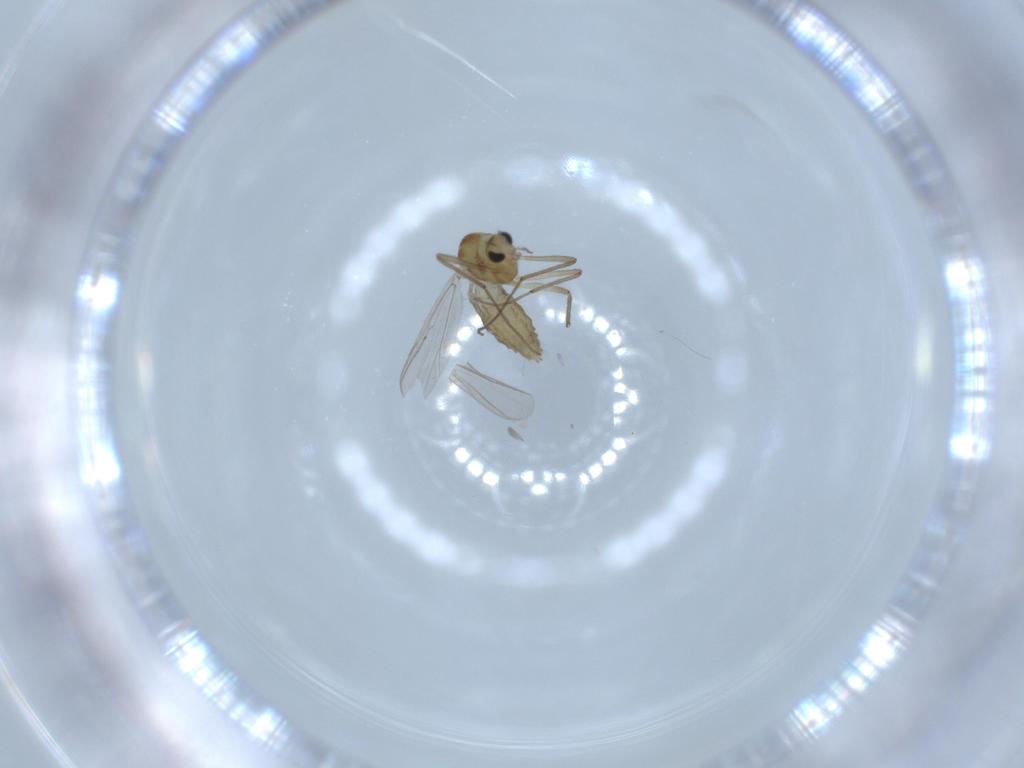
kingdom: Animalia
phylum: Arthropoda
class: Insecta
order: Diptera
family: Chironomidae
